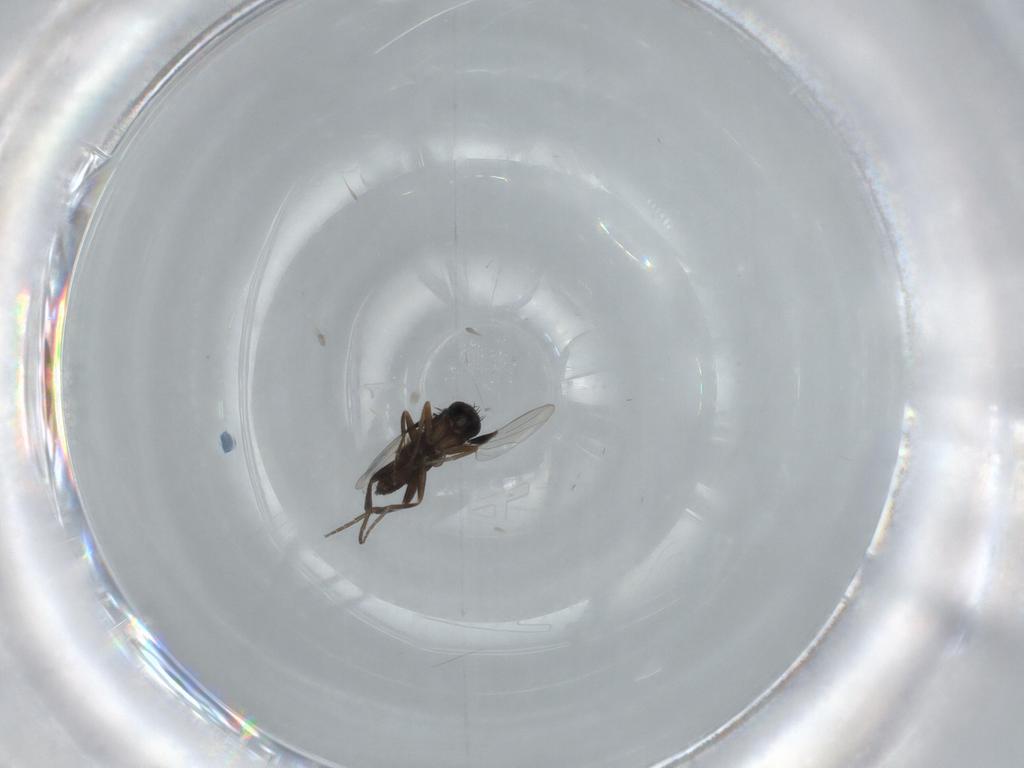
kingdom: Animalia
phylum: Arthropoda
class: Insecta
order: Diptera
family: Phoridae
